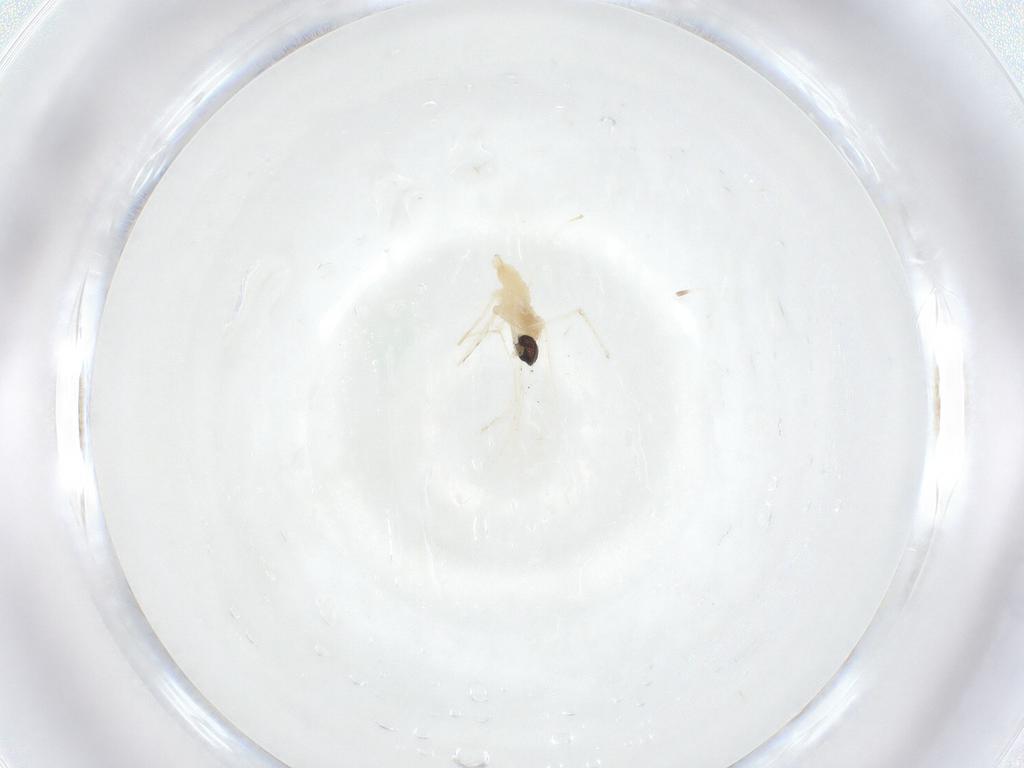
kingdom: Animalia
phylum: Arthropoda
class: Insecta
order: Diptera
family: Cecidomyiidae
